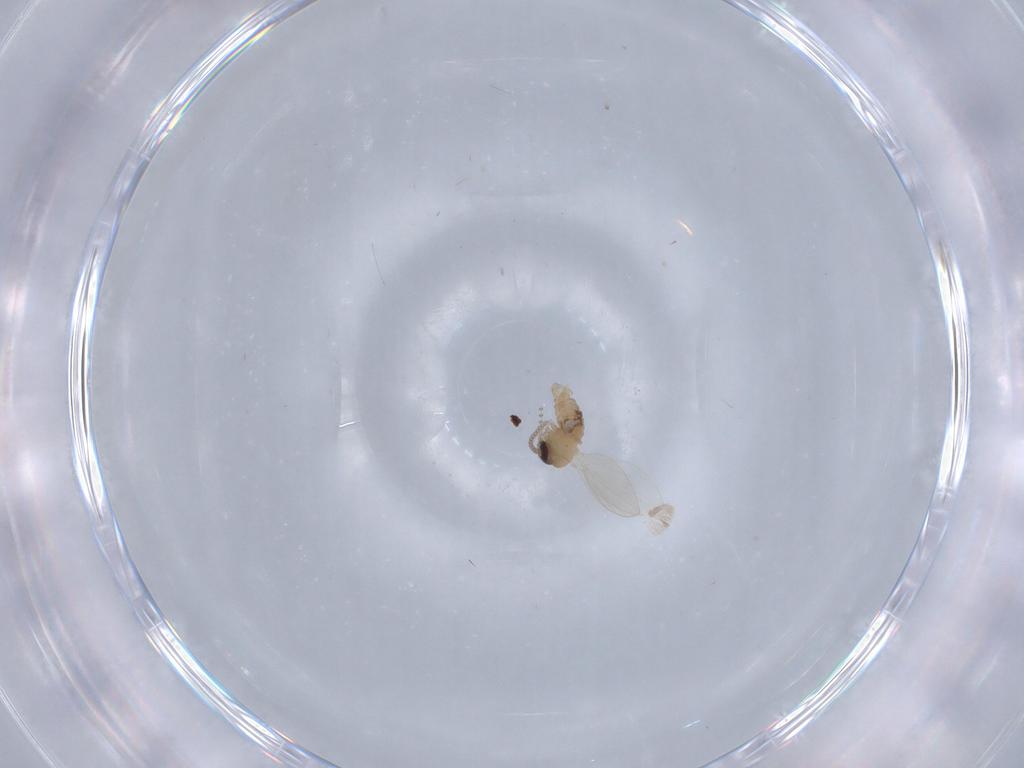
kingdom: Animalia
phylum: Arthropoda
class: Insecta
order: Diptera
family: Psychodidae
